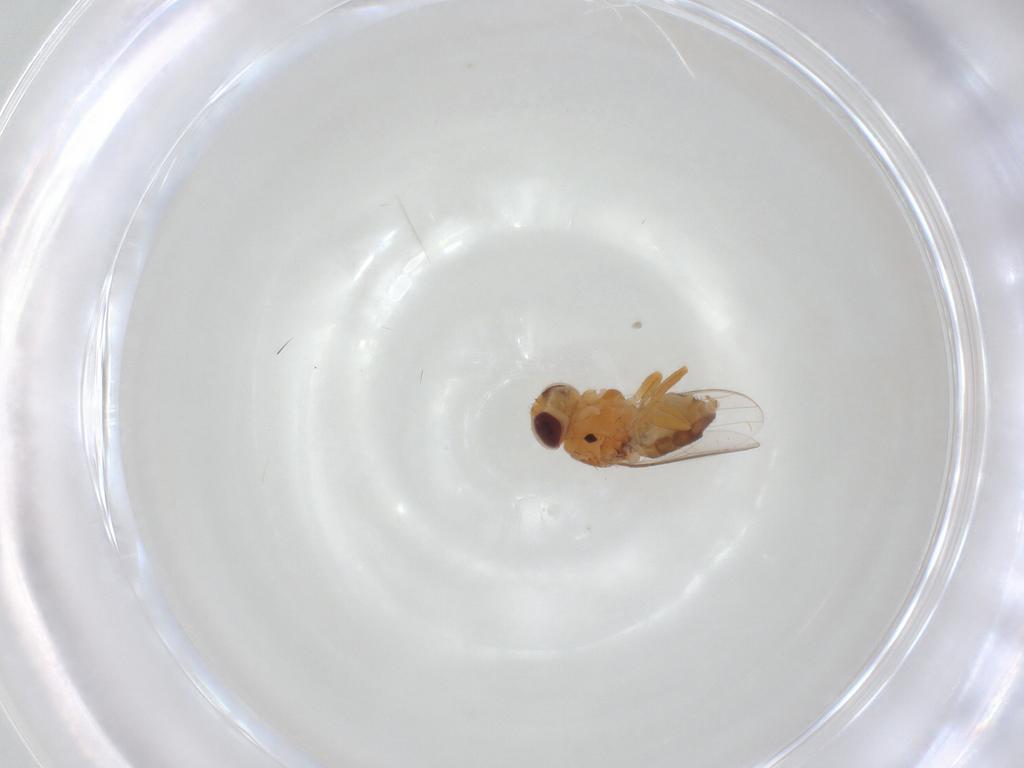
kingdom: Animalia
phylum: Arthropoda
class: Insecta
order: Diptera
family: Chloropidae
